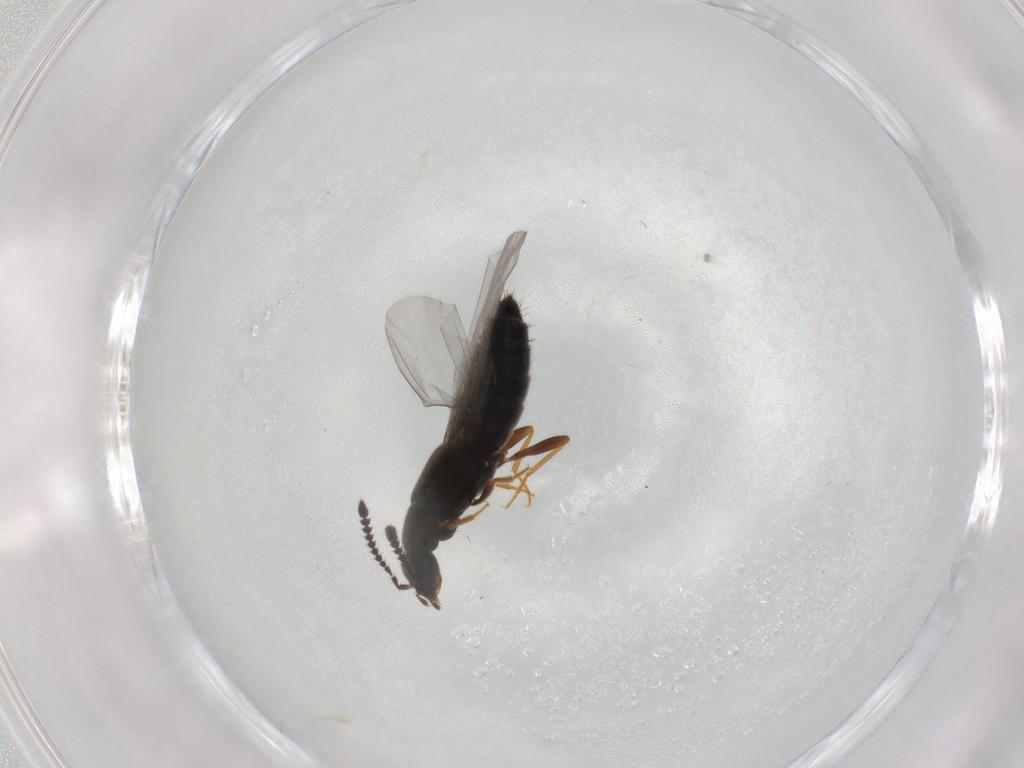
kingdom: Animalia
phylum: Arthropoda
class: Insecta
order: Coleoptera
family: Staphylinidae
